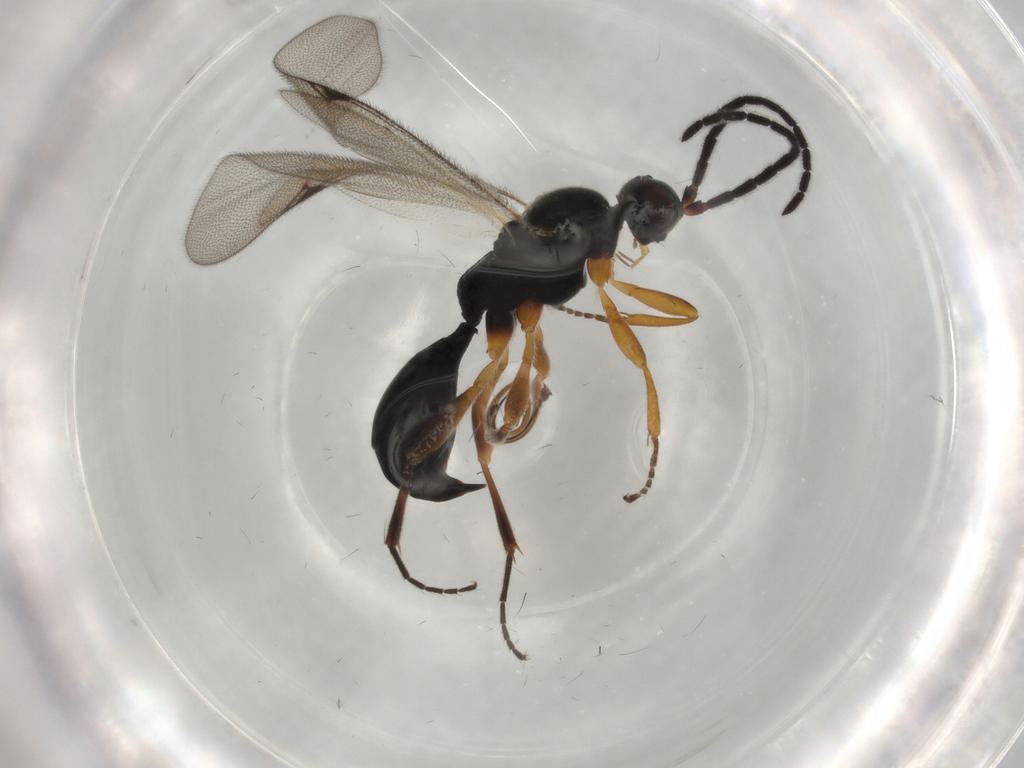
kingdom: Animalia
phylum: Arthropoda
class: Insecta
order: Hymenoptera
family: Proctotrupidae
